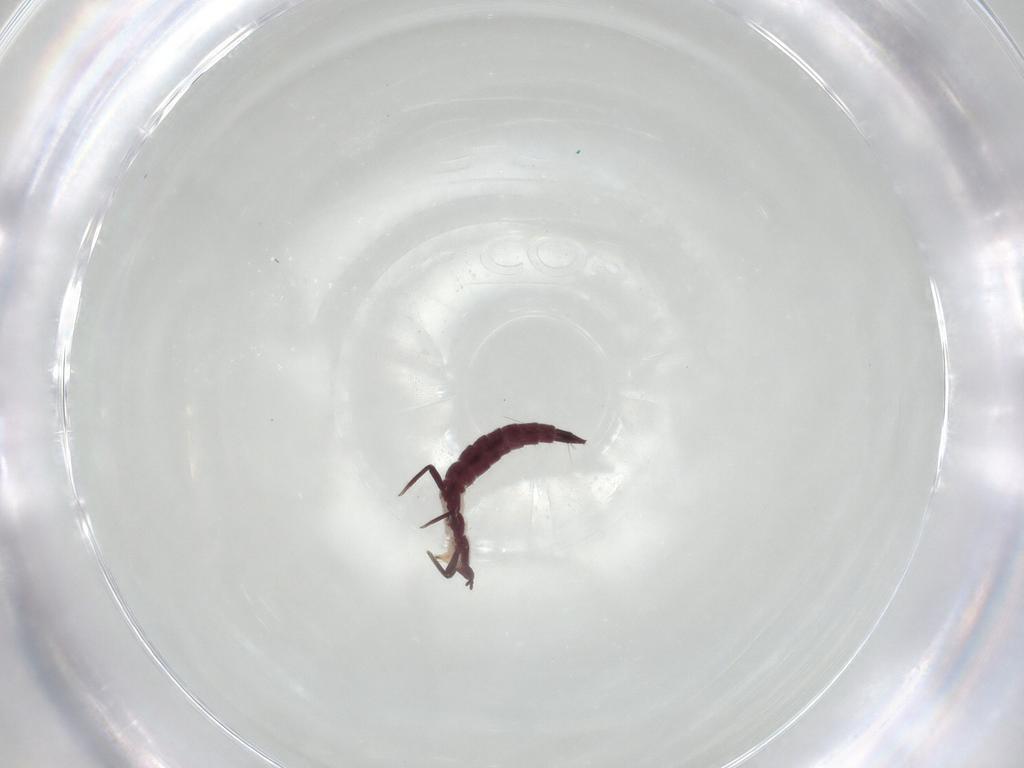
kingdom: Animalia
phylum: Arthropoda
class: Insecta
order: Thysanoptera
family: Phlaeothripidae
